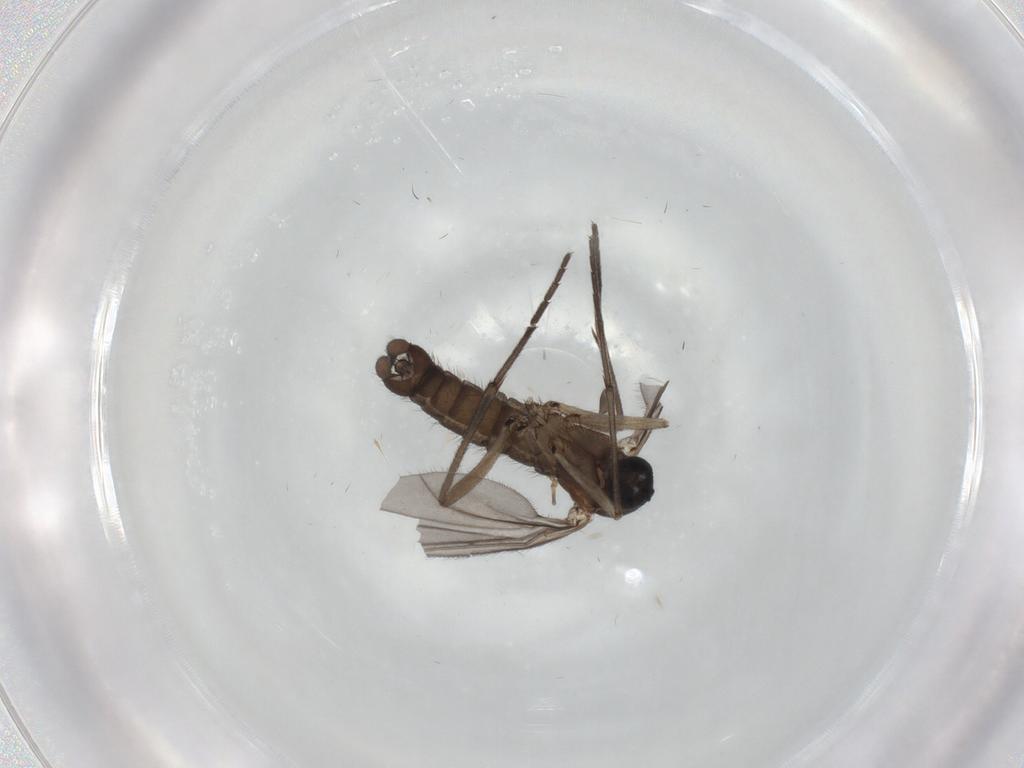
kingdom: Animalia
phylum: Arthropoda
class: Insecta
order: Diptera
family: Sciaridae
